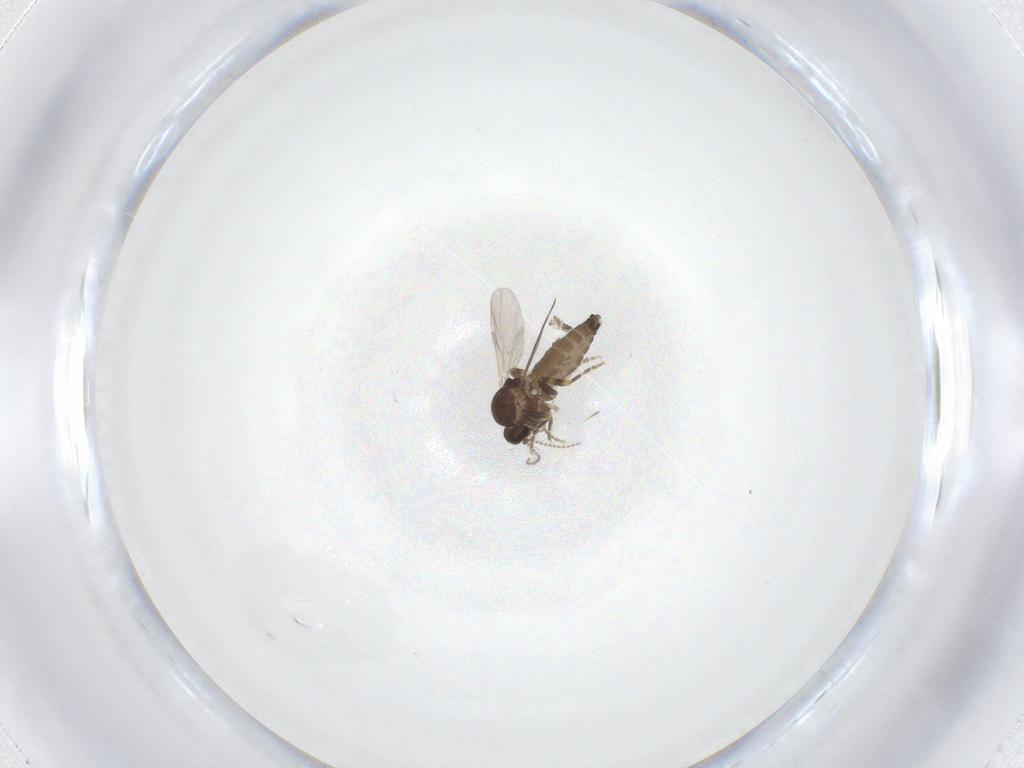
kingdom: Animalia
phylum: Arthropoda
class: Insecta
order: Diptera
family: Ceratopogonidae
